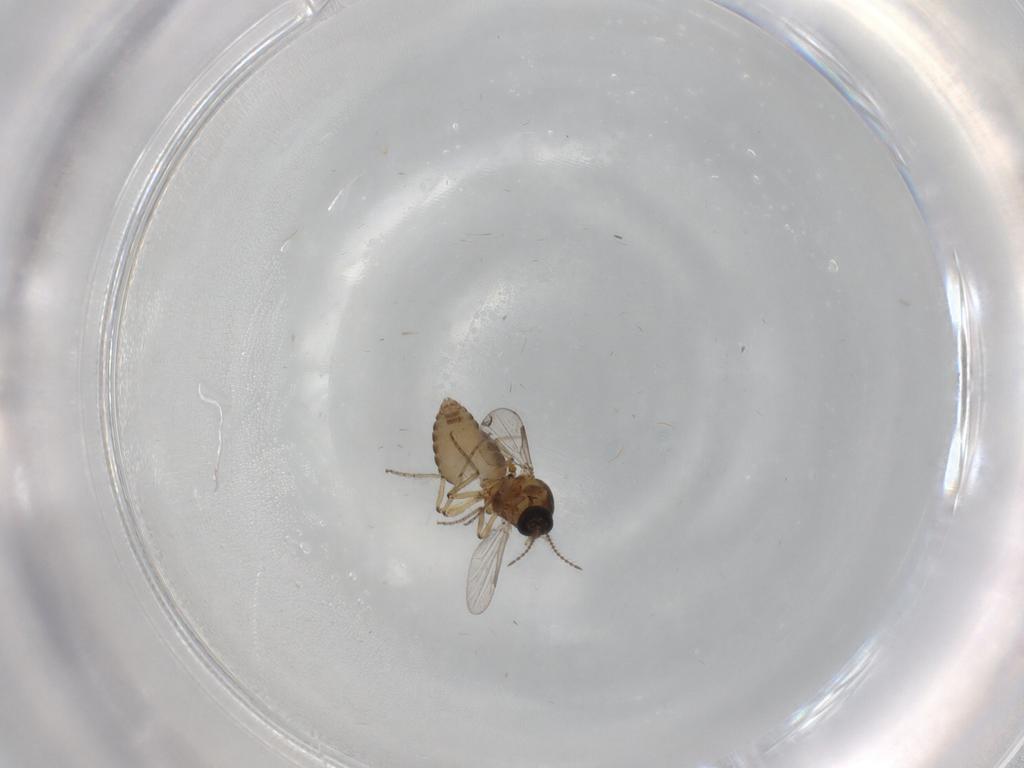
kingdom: Animalia
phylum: Arthropoda
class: Insecta
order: Diptera
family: Ceratopogonidae
